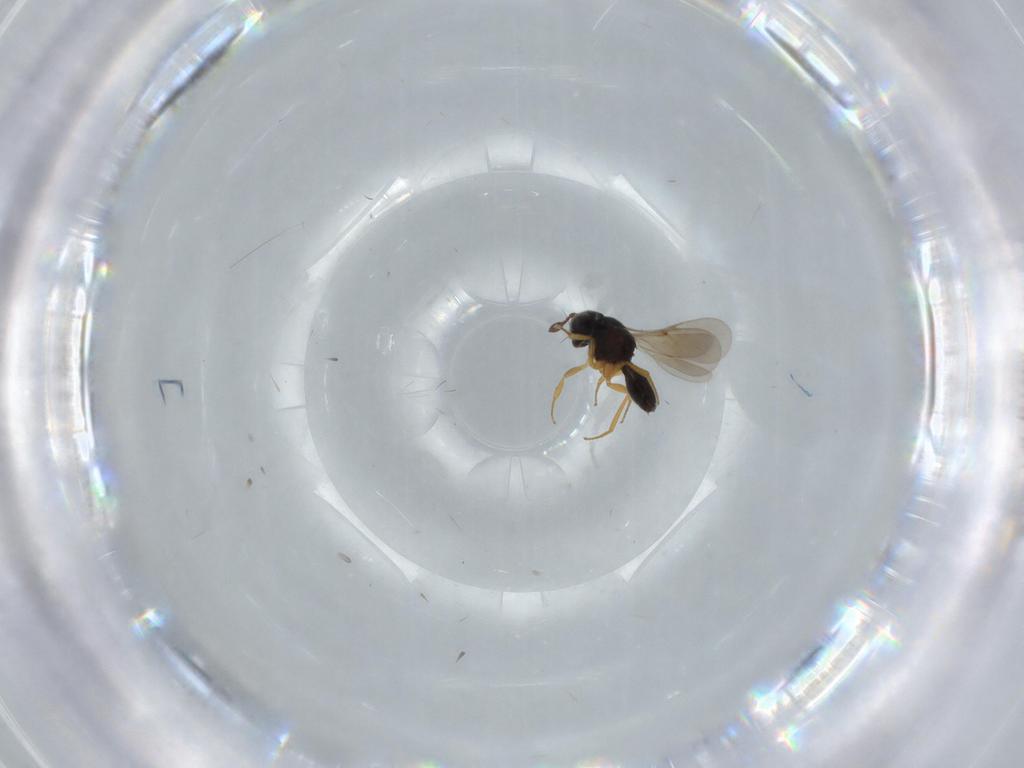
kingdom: Animalia
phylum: Arthropoda
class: Insecta
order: Hymenoptera
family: Scelionidae
